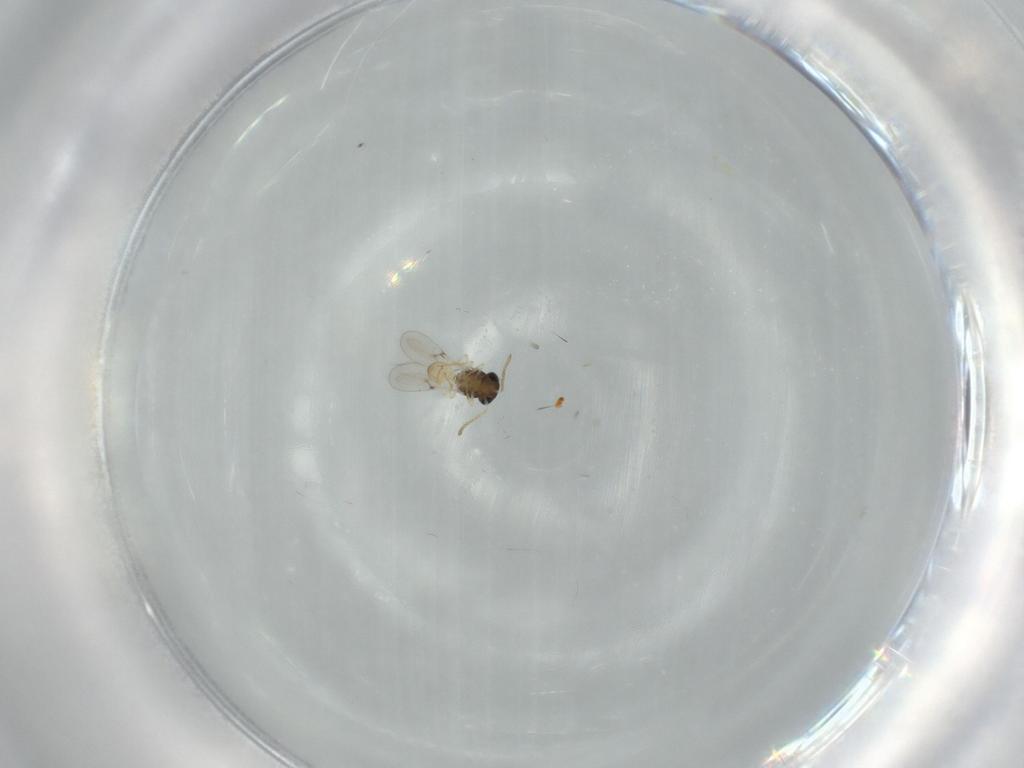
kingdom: Animalia
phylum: Arthropoda
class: Insecta
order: Hymenoptera
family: Scelionidae
